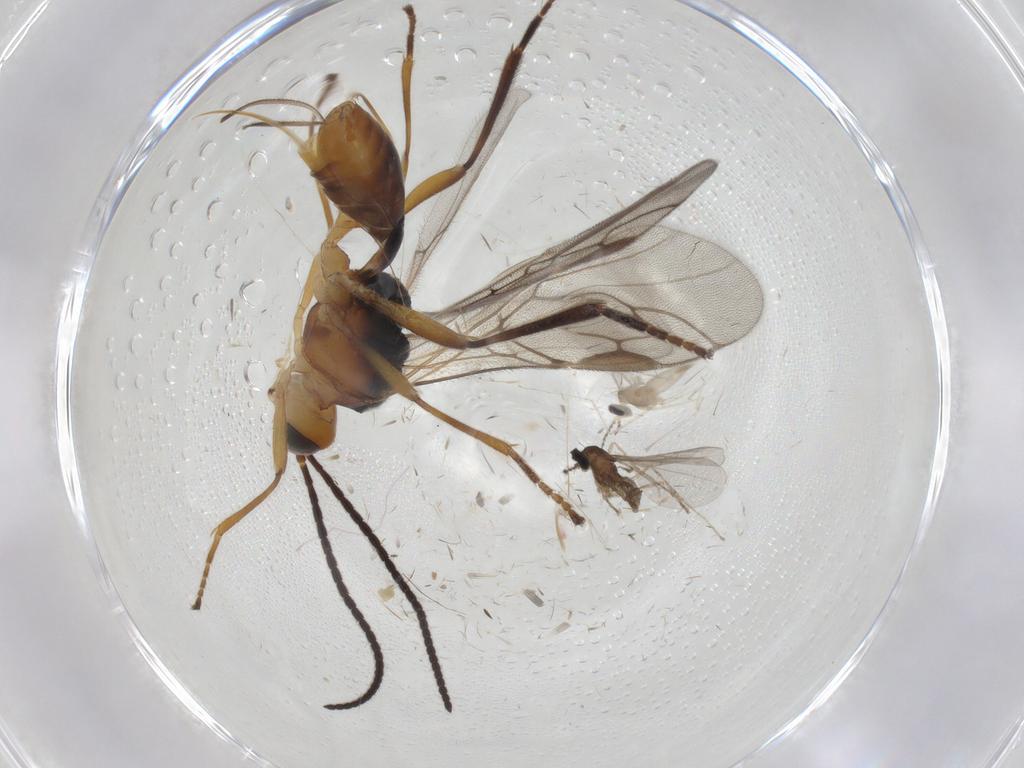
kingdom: Animalia
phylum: Arthropoda
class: Insecta
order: Diptera
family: Cecidomyiidae
